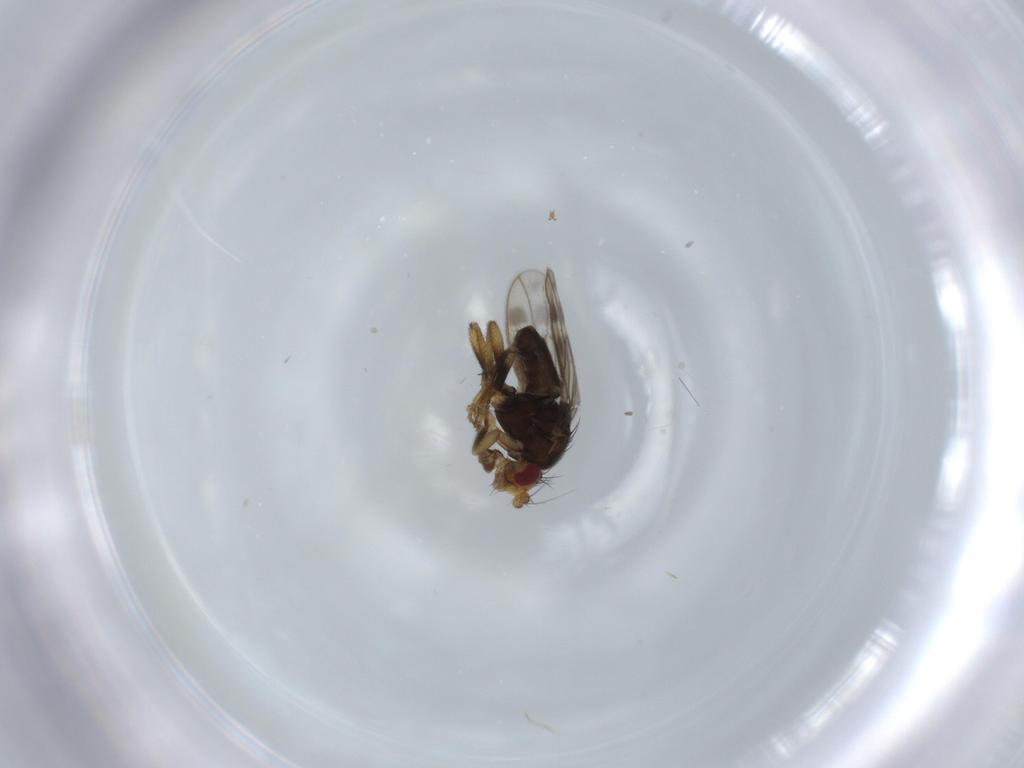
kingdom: Animalia
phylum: Arthropoda
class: Insecta
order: Diptera
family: Sphaeroceridae
